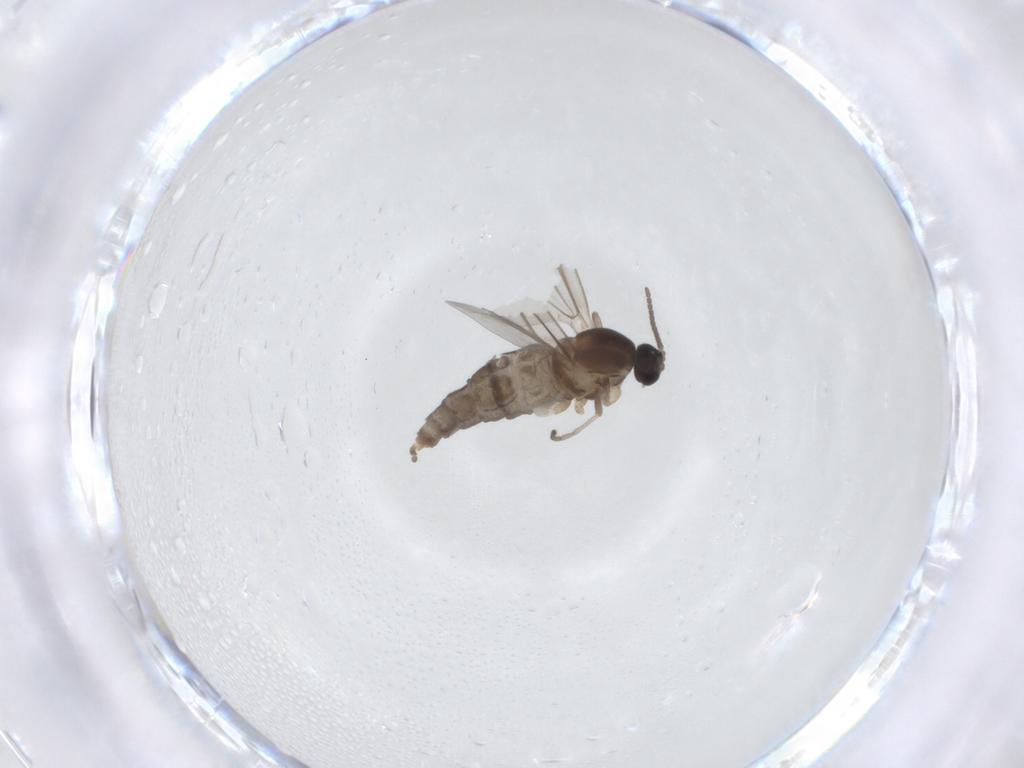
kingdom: Animalia
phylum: Arthropoda
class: Insecta
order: Diptera
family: Cecidomyiidae
